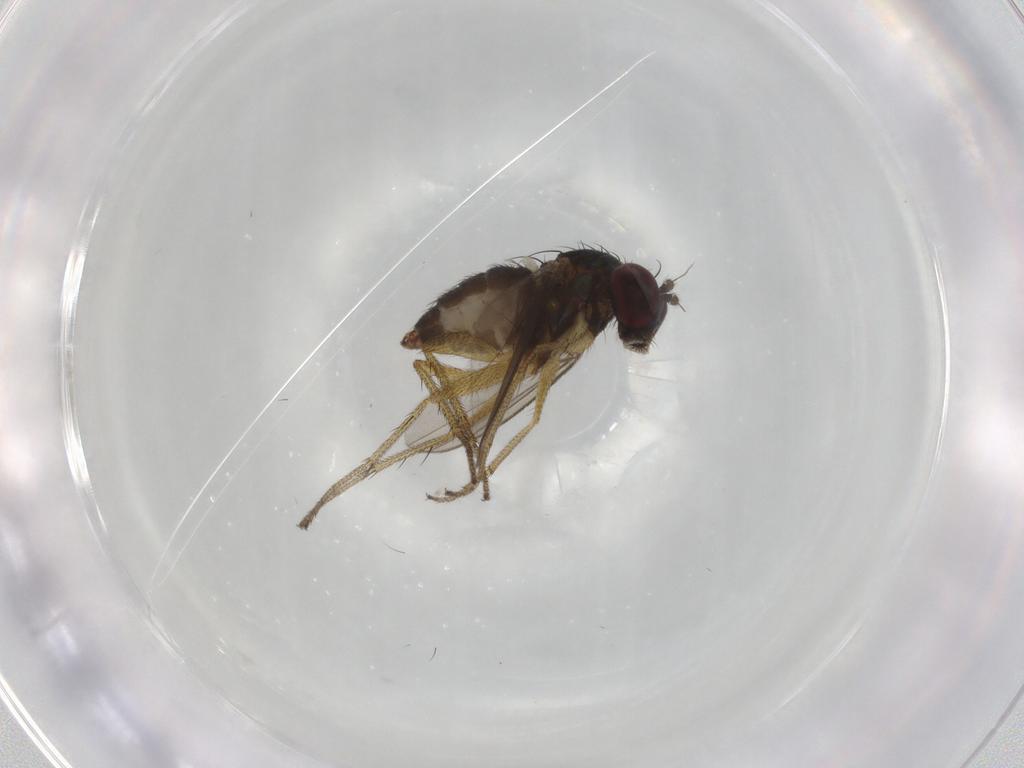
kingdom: Animalia
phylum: Arthropoda
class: Insecta
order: Diptera
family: Dolichopodidae
